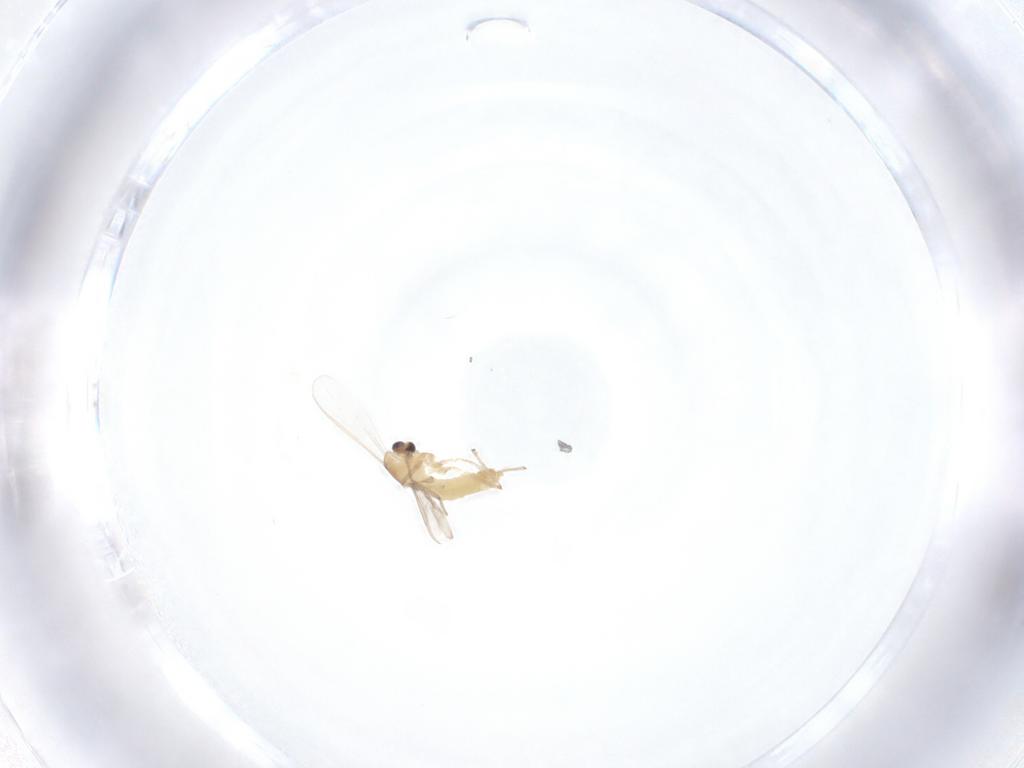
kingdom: Animalia
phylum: Arthropoda
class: Insecta
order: Diptera
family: Chironomidae
